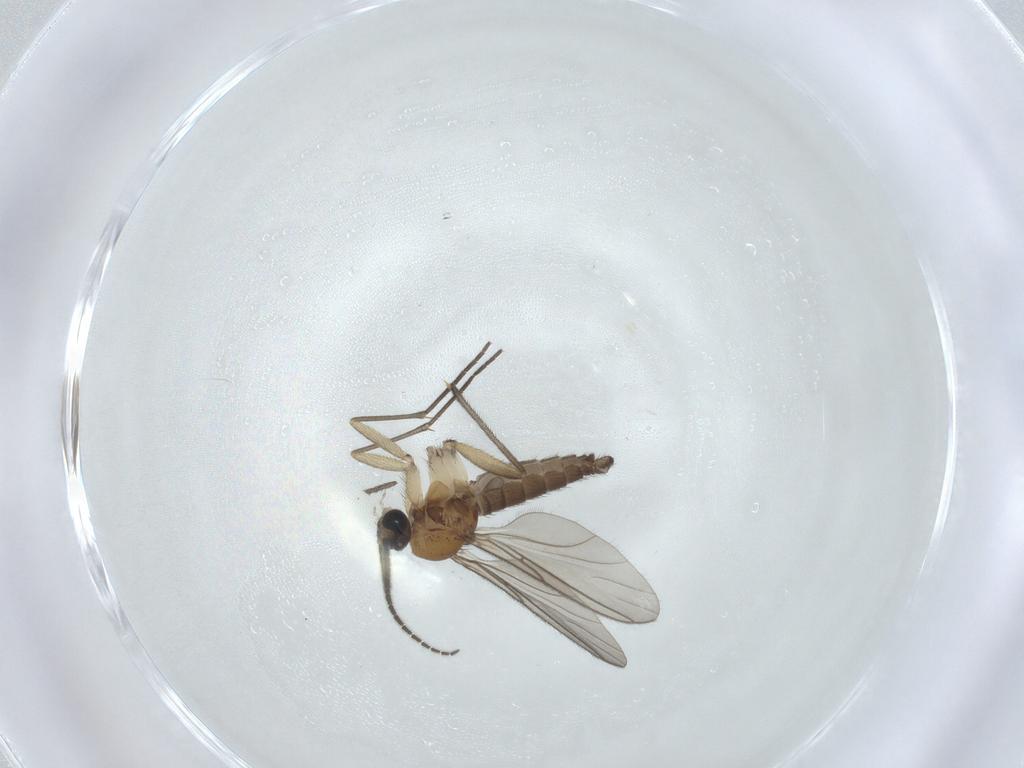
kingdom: Animalia
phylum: Arthropoda
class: Insecta
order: Diptera
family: Sciaridae
